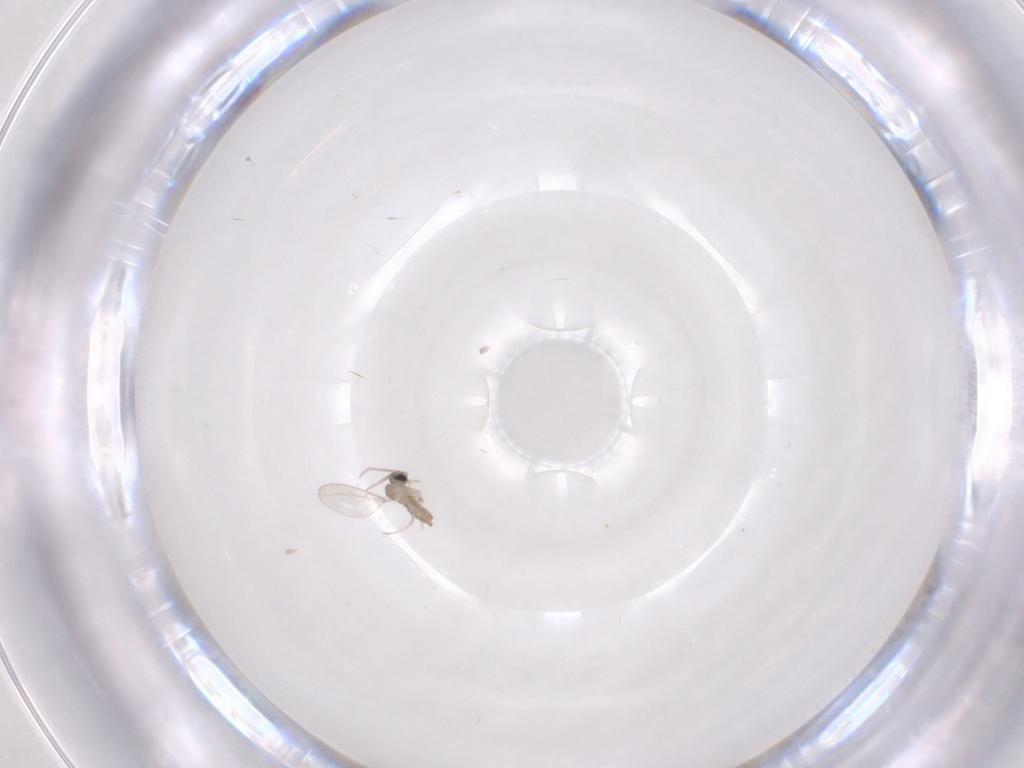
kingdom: Animalia
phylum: Arthropoda
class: Insecta
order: Diptera
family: Cecidomyiidae
